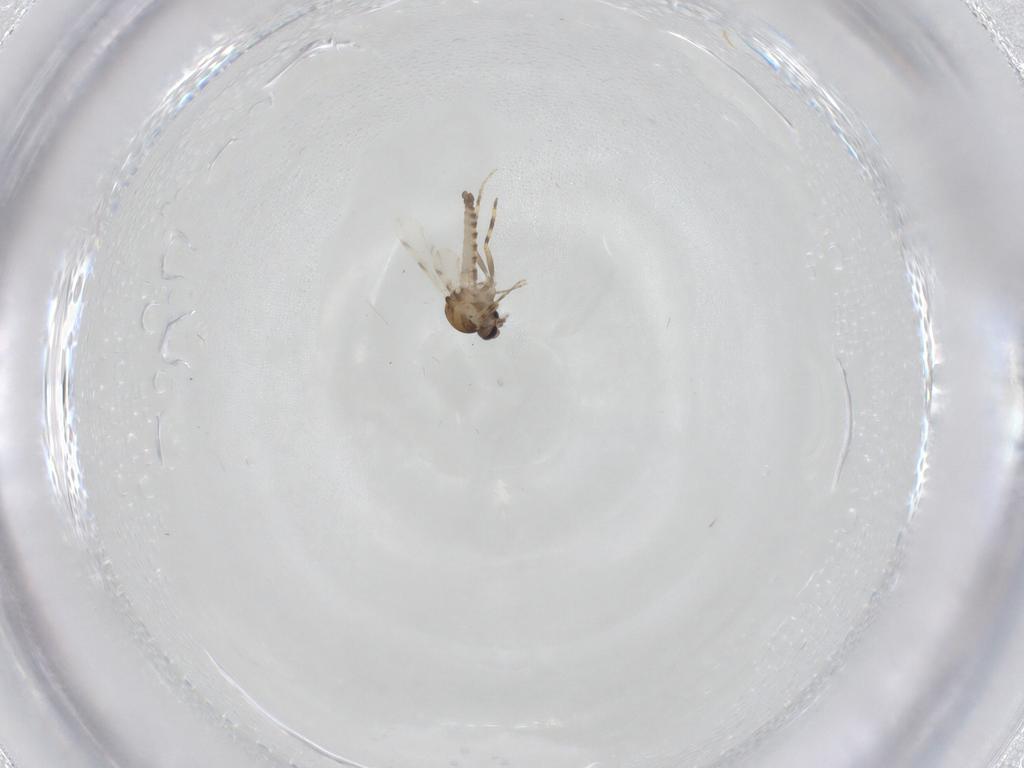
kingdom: Animalia
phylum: Arthropoda
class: Insecta
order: Diptera
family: Ceratopogonidae
